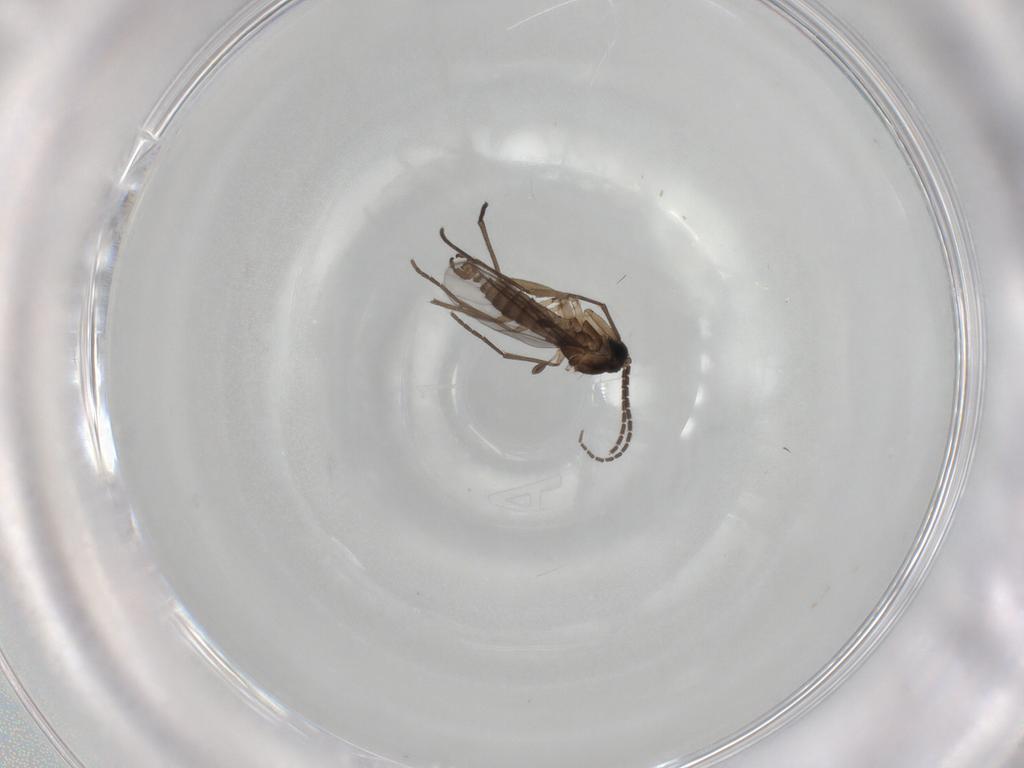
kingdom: Animalia
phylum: Arthropoda
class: Insecta
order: Diptera
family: Sciaridae
